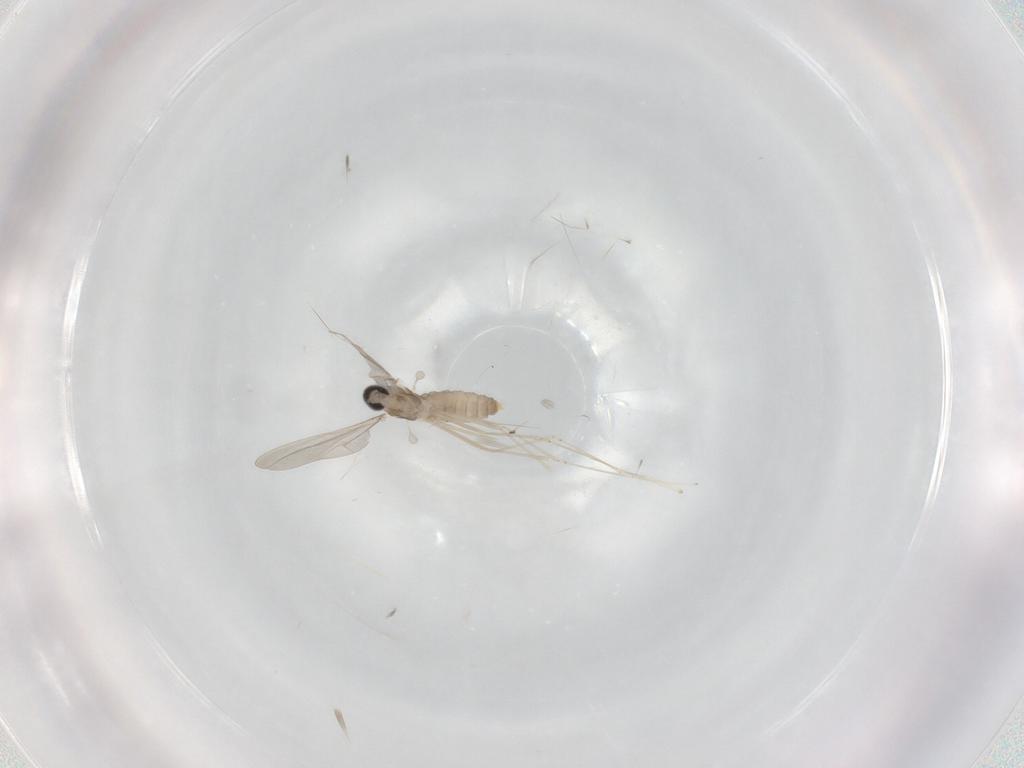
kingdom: Animalia
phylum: Arthropoda
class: Insecta
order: Diptera
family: Cecidomyiidae
